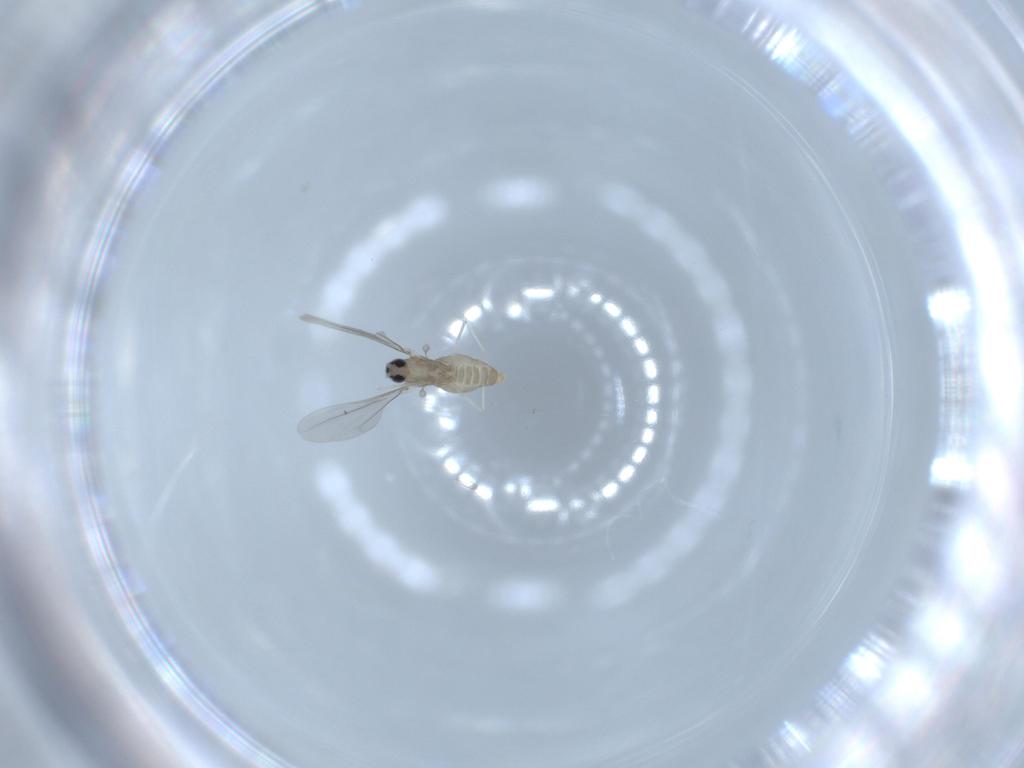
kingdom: Animalia
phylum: Arthropoda
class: Insecta
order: Diptera
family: Cecidomyiidae
